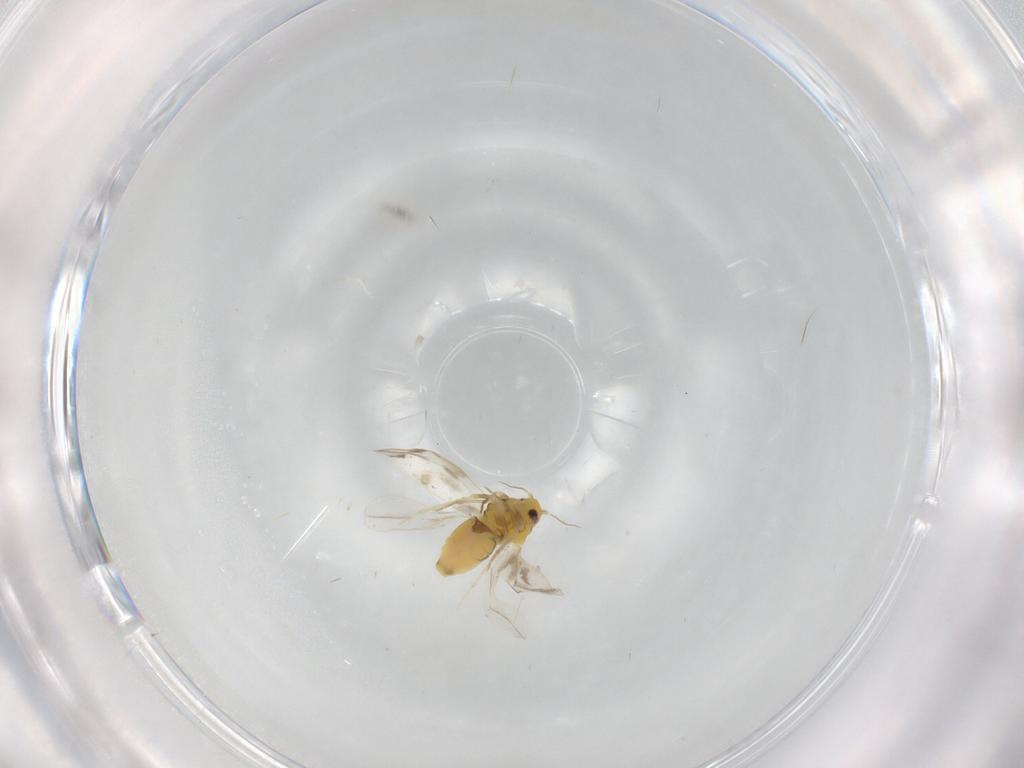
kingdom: Animalia
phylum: Arthropoda
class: Insecta
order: Hemiptera
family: Aleyrodidae
